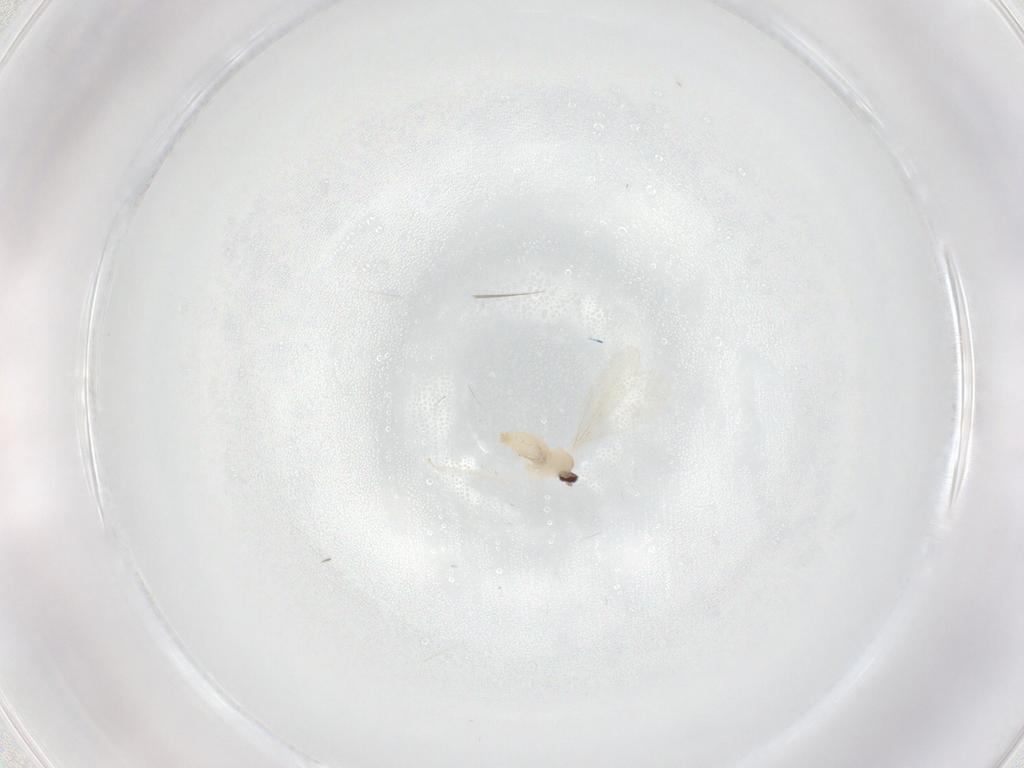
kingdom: Animalia
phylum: Arthropoda
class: Insecta
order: Diptera
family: Cecidomyiidae
